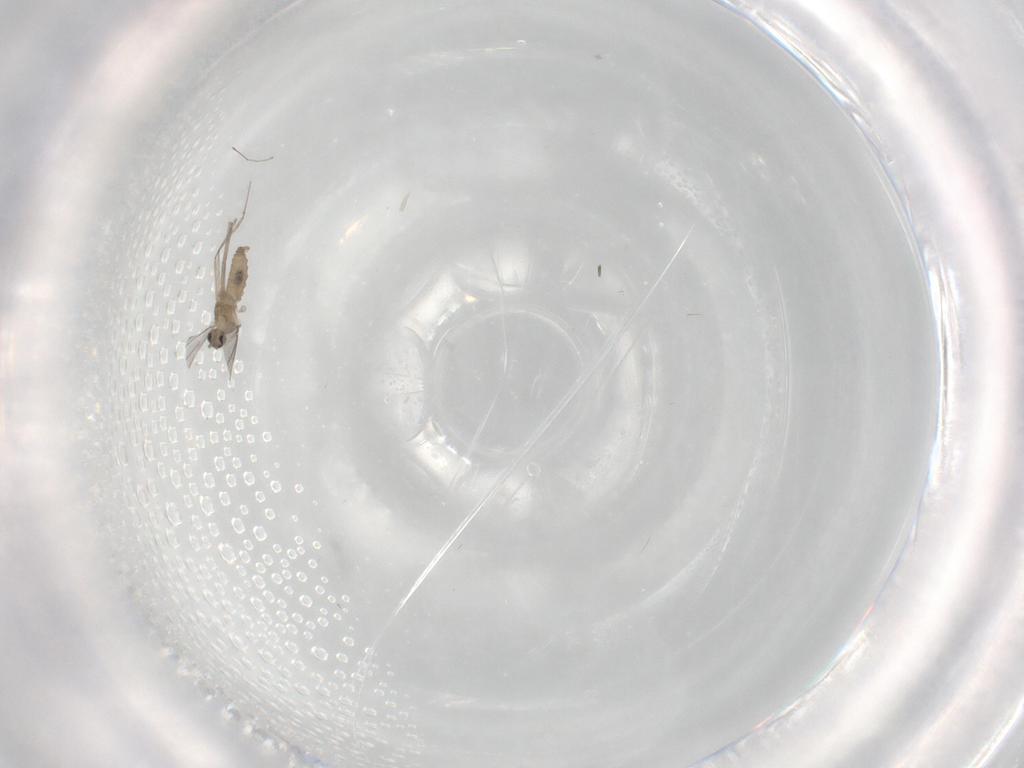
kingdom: Animalia
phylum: Arthropoda
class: Insecta
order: Diptera
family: Cecidomyiidae
